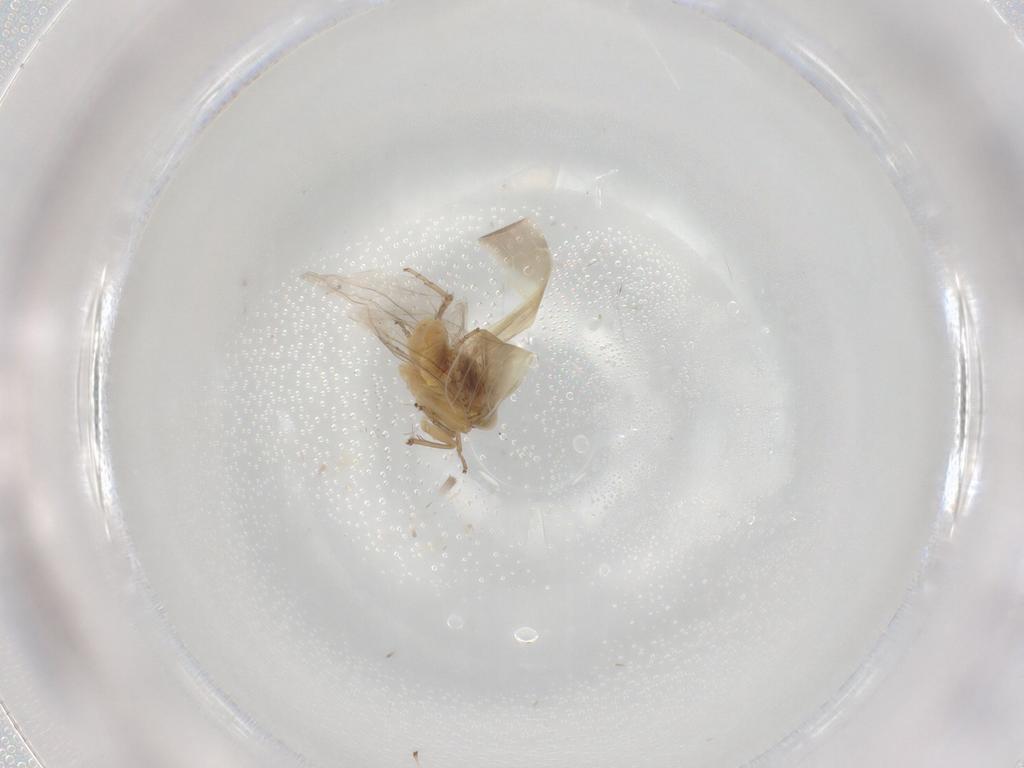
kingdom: Animalia
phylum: Arthropoda
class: Insecta
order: Hemiptera
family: Cicadellidae
